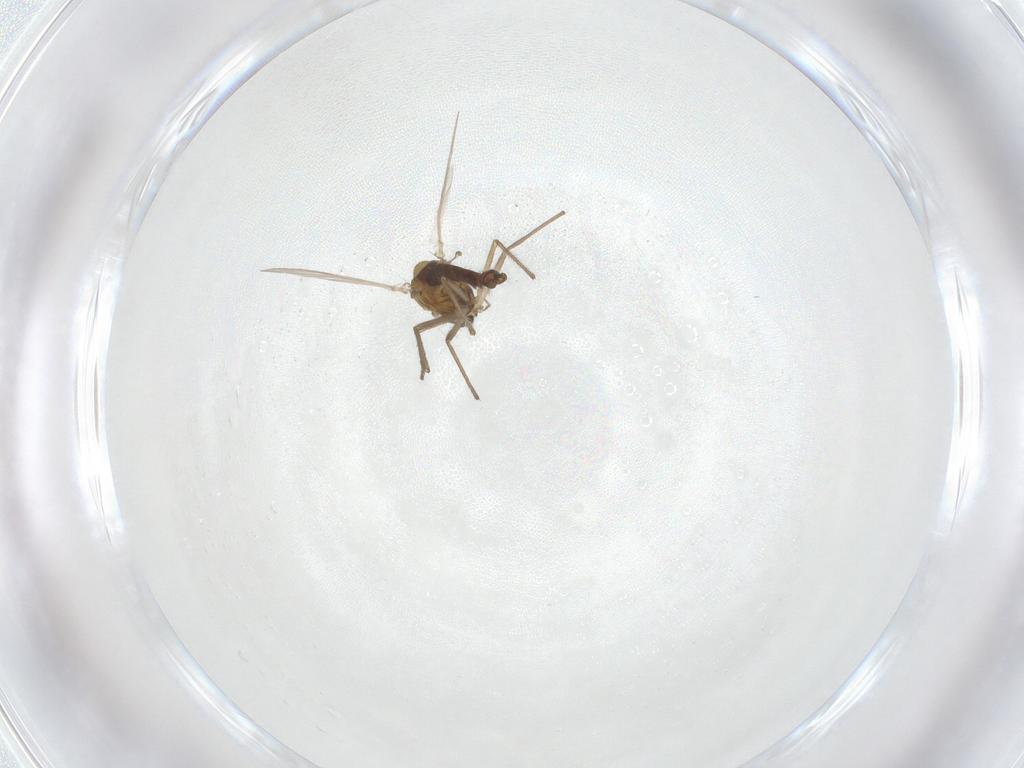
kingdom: Animalia
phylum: Arthropoda
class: Insecta
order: Diptera
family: Chironomidae
